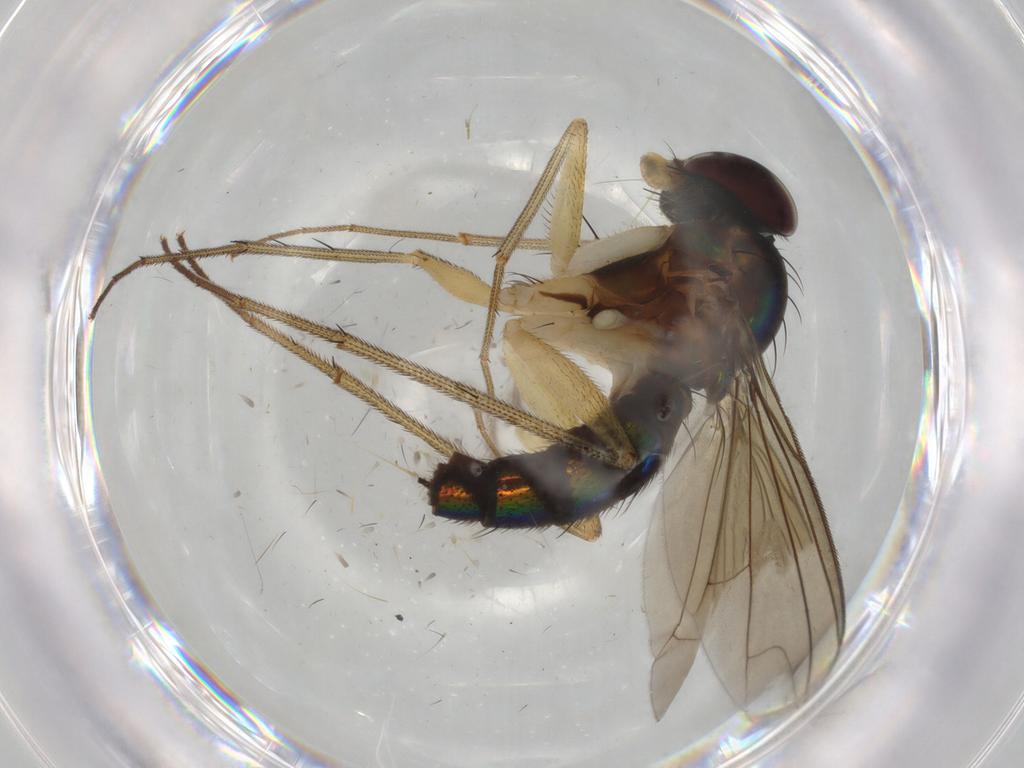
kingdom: Animalia
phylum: Arthropoda
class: Insecta
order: Diptera
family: Dolichopodidae
